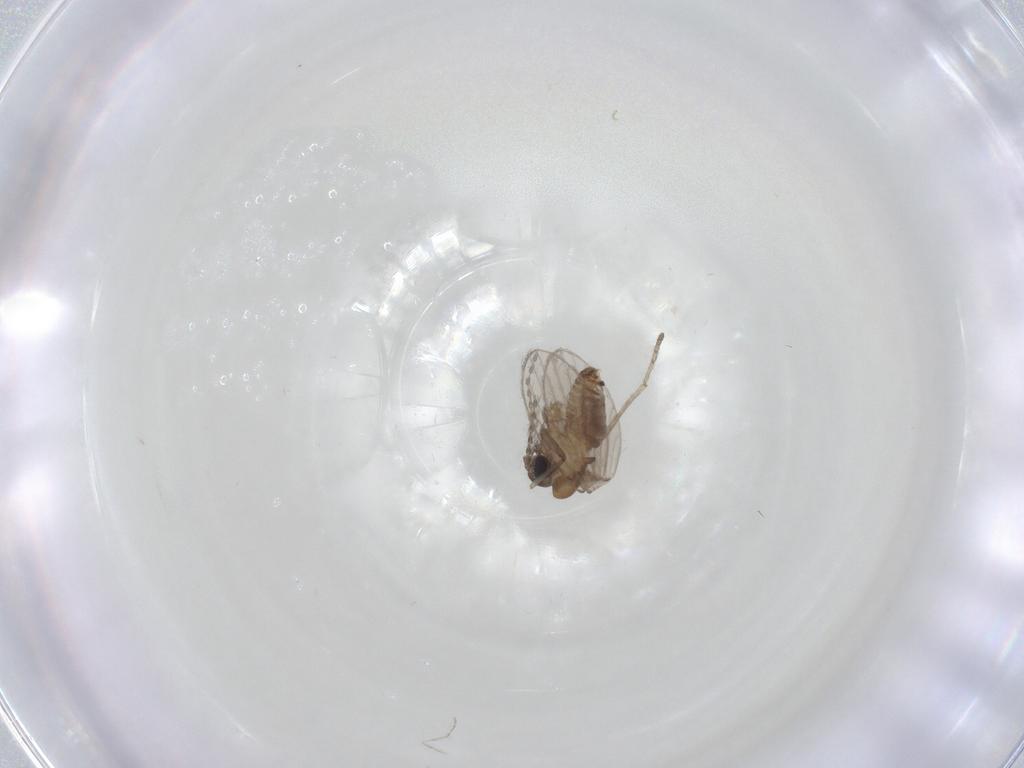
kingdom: Animalia
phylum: Arthropoda
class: Insecta
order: Diptera
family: Cecidomyiidae
